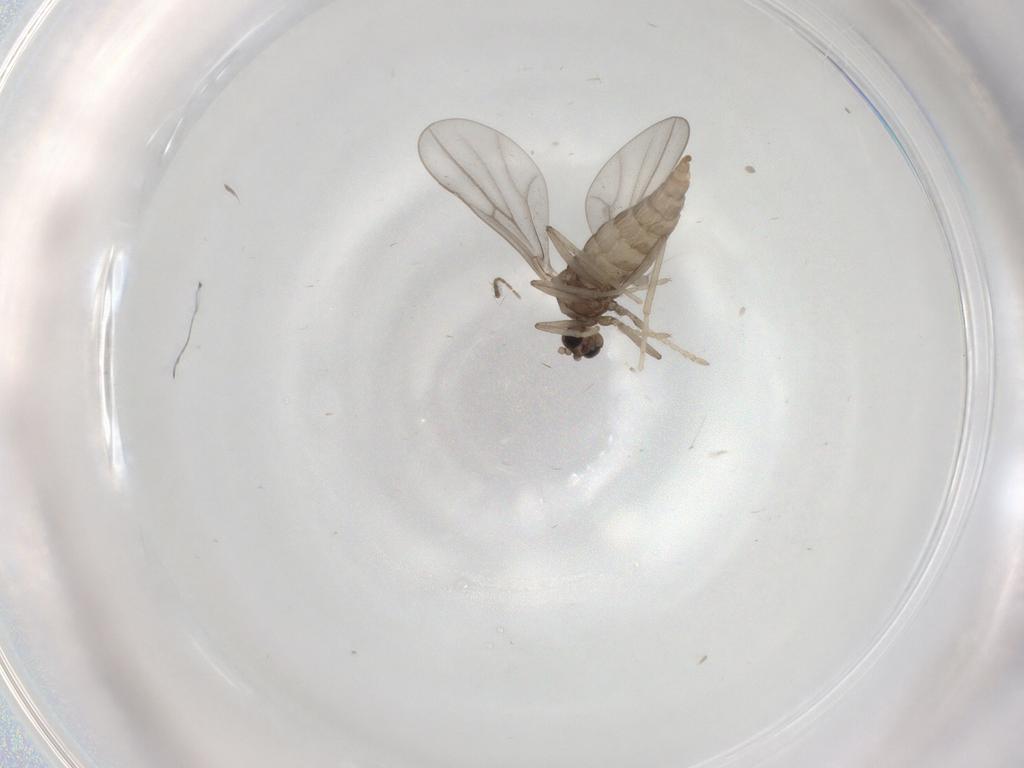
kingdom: Animalia
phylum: Arthropoda
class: Insecta
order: Diptera
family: Cecidomyiidae
